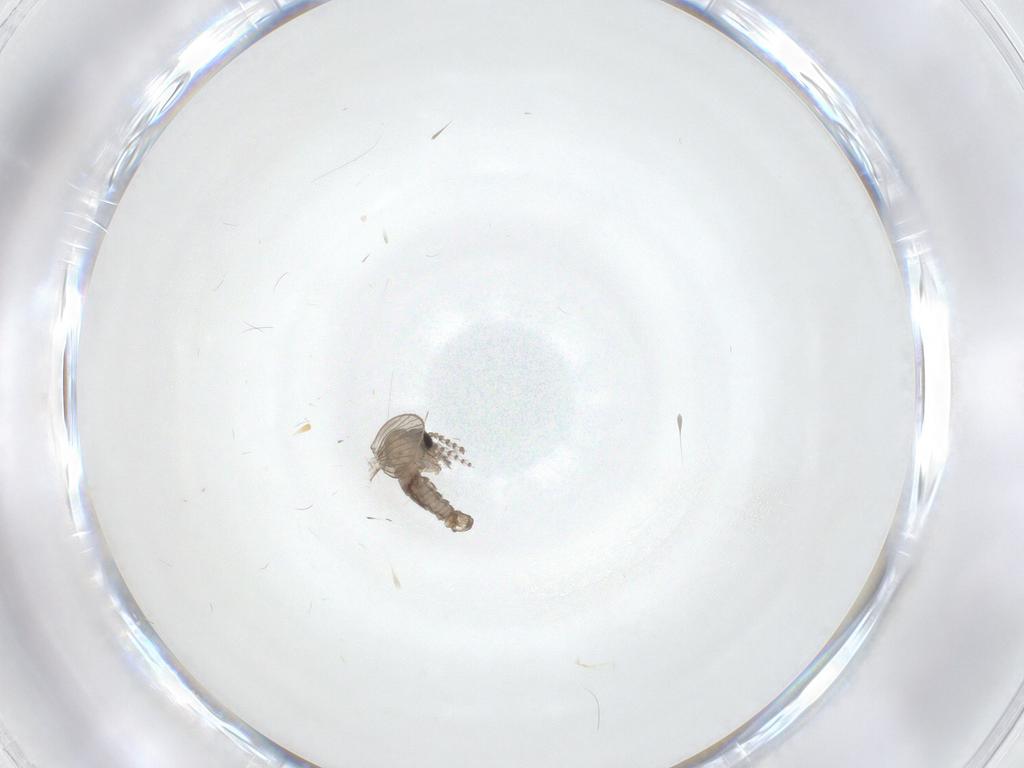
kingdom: Animalia
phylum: Arthropoda
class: Insecta
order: Diptera
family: Psychodidae
